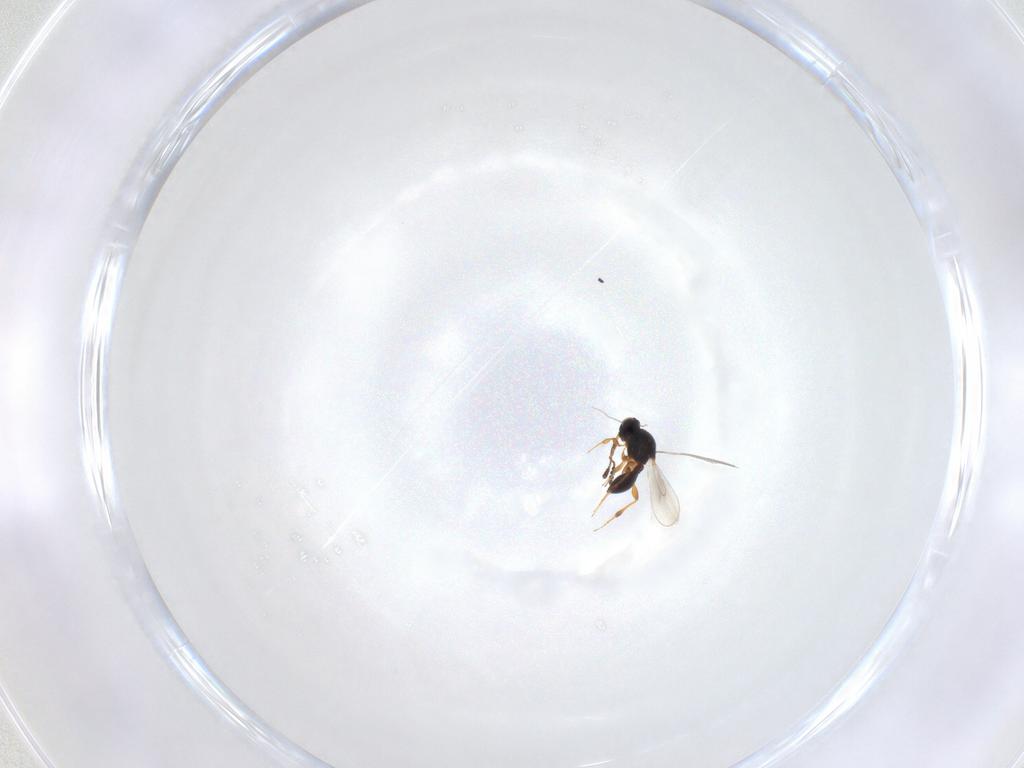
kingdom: Animalia
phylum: Arthropoda
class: Insecta
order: Hymenoptera
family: Platygastridae
